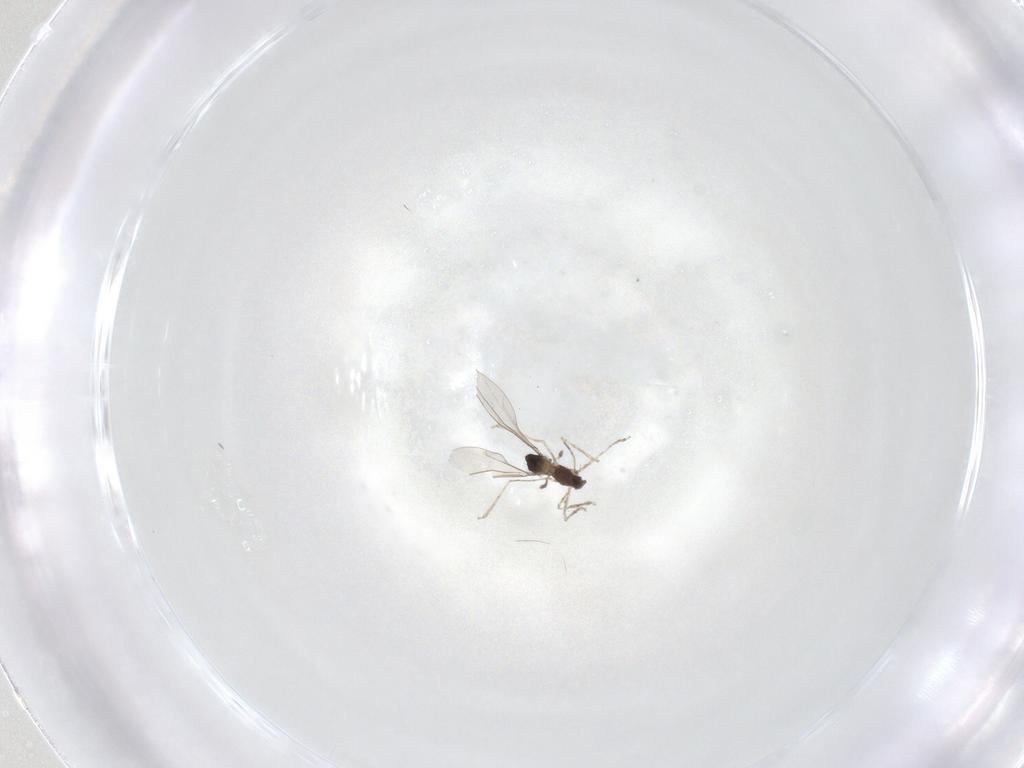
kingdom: Animalia
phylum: Arthropoda
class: Insecta
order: Diptera
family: Cecidomyiidae
